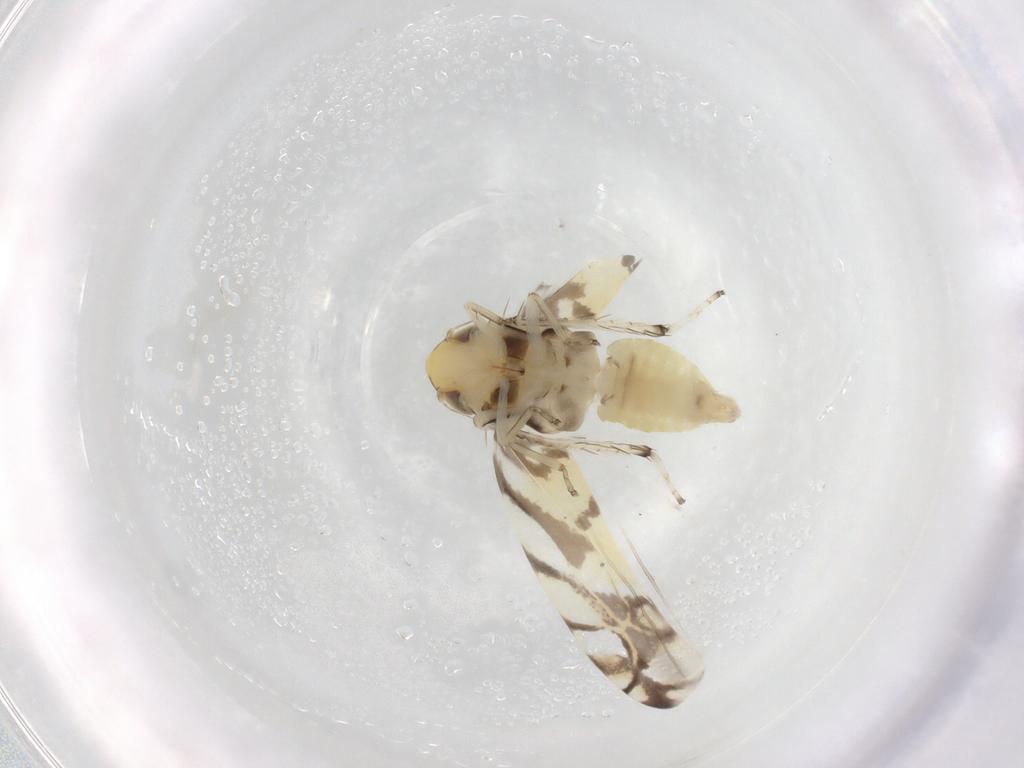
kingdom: Animalia
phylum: Arthropoda
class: Insecta
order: Hemiptera
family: Cicadellidae
